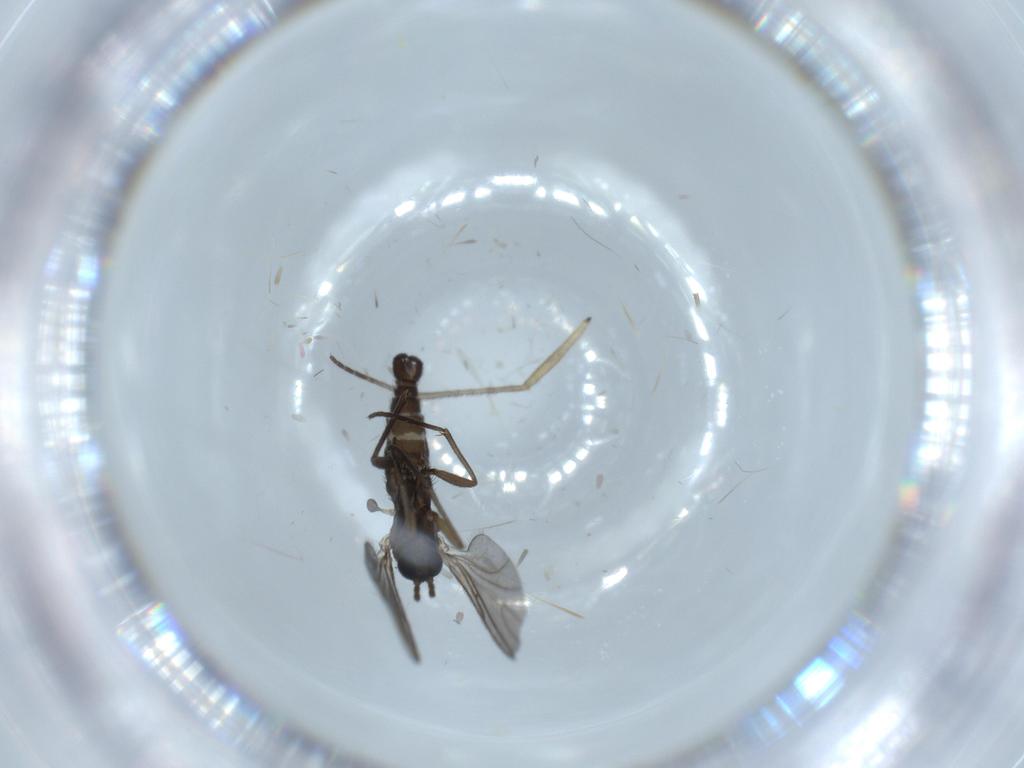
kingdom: Animalia
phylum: Arthropoda
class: Insecta
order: Diptera
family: Sciaridae
